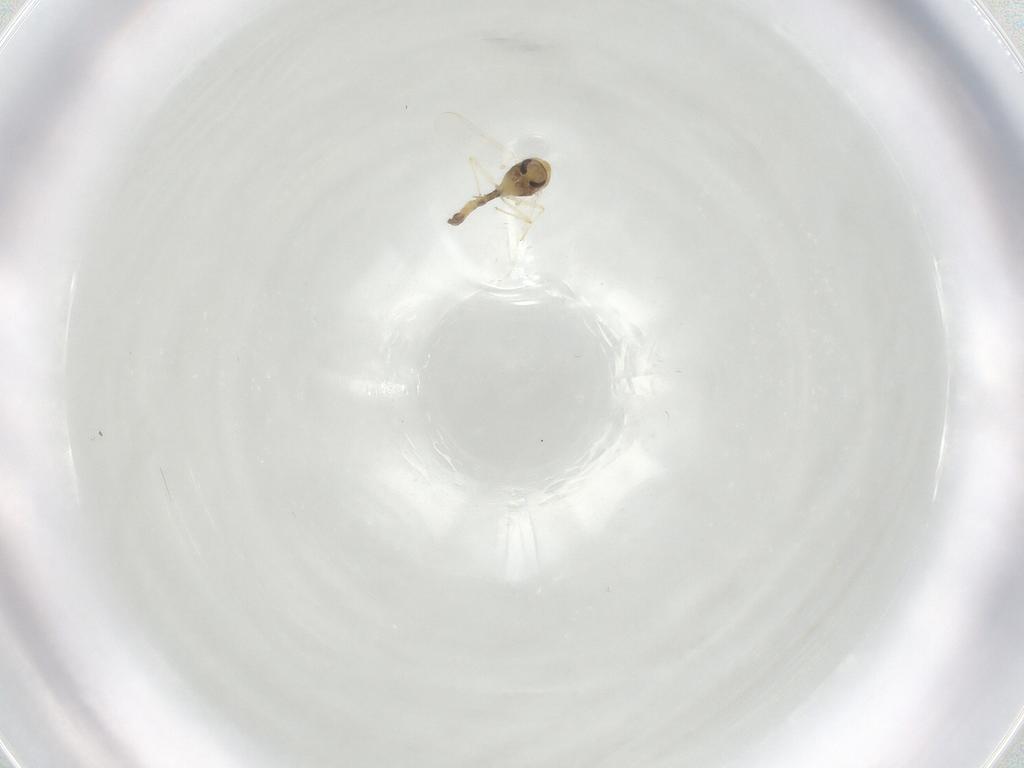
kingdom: Animalia
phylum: Arthropoda
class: Insecta
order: Diptera
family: Chironomidae
